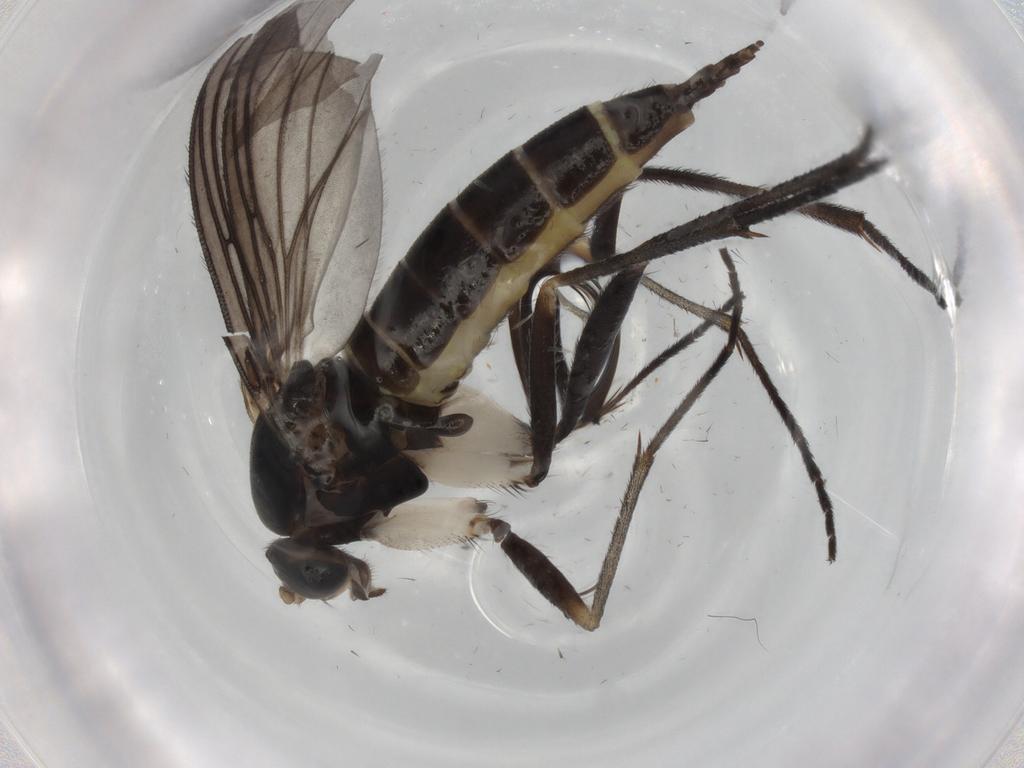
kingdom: Animalia
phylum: Arthropoda
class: Insecta
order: Diptera
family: Sciaridae
